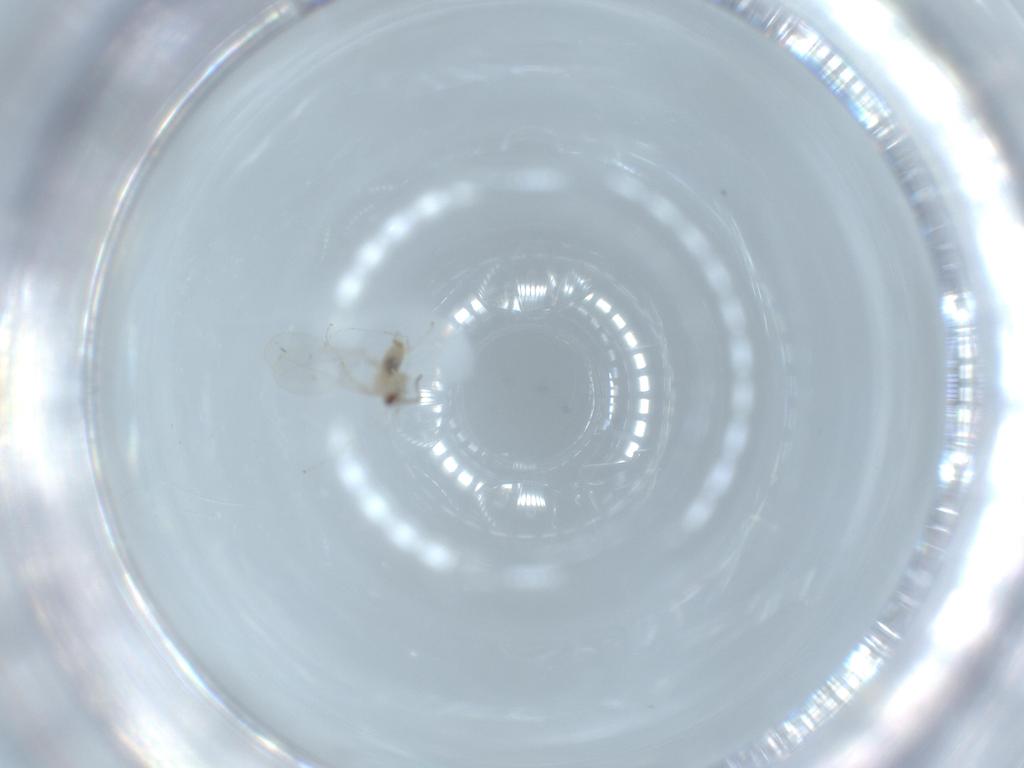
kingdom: Animalia
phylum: Arthropoda
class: Insecta
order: Diptera
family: Cecidomyiidae
